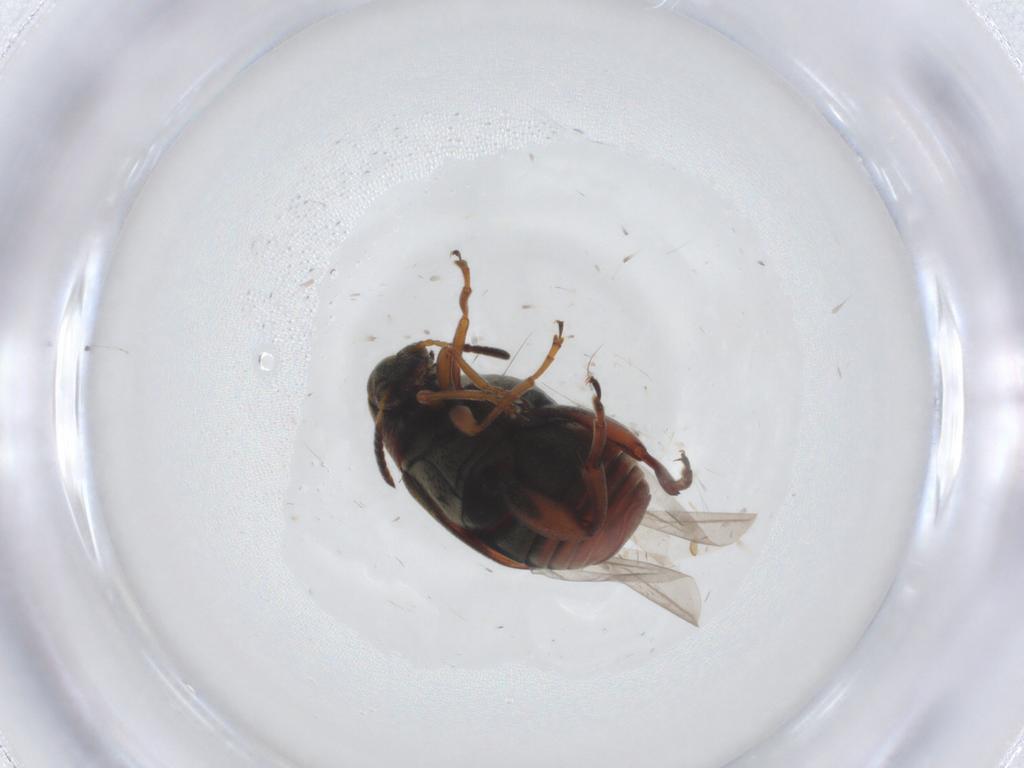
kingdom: Animalia
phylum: Arthropoda
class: Insecta
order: Coleoptera
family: Chrysomelidae
